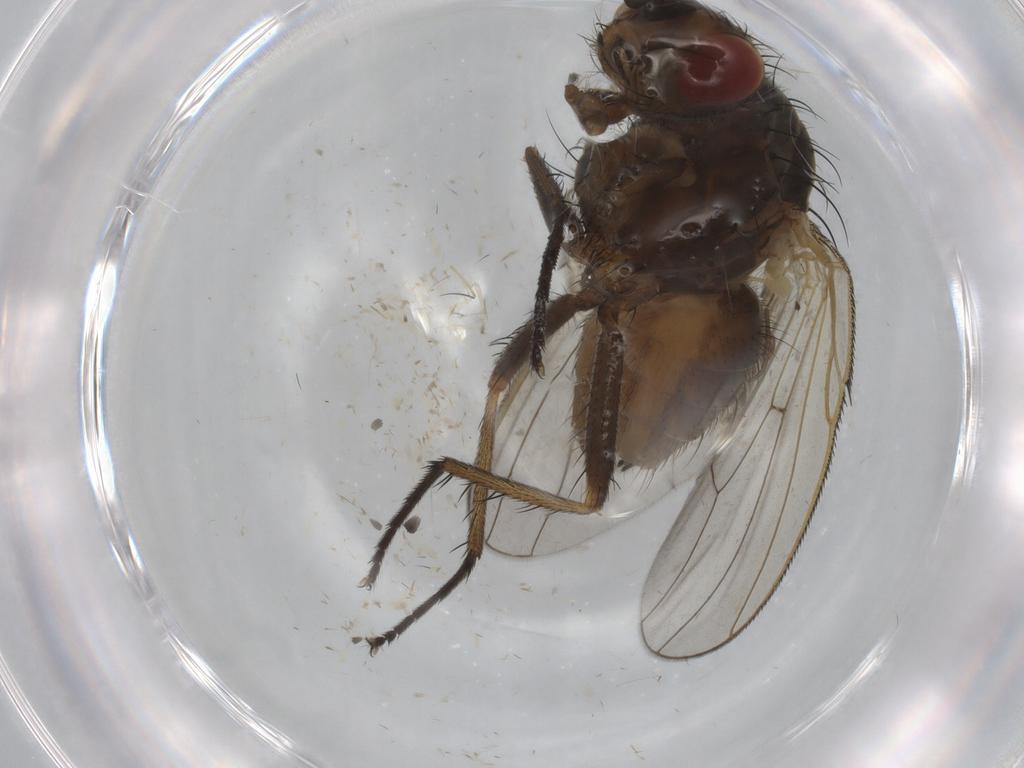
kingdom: Animalia
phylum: Arthropoda
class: Insecta
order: Diptera
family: Anthomyiidae
